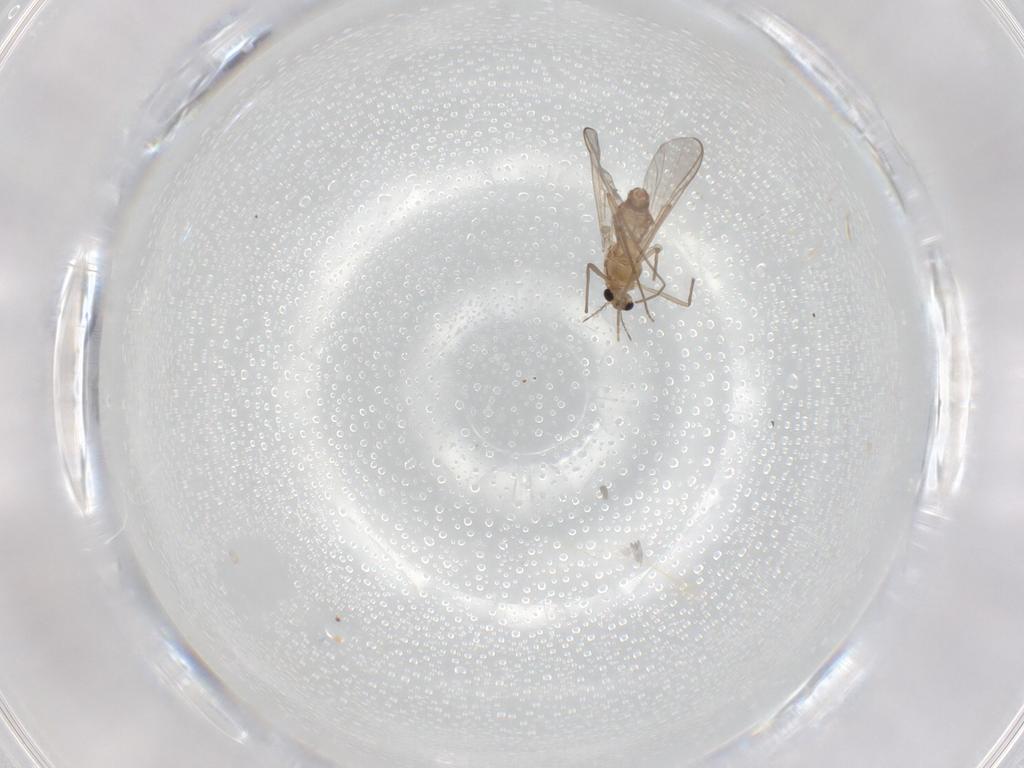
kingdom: Animalia
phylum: Arthropoda
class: Insecta
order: Diptera
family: Chironomidae
